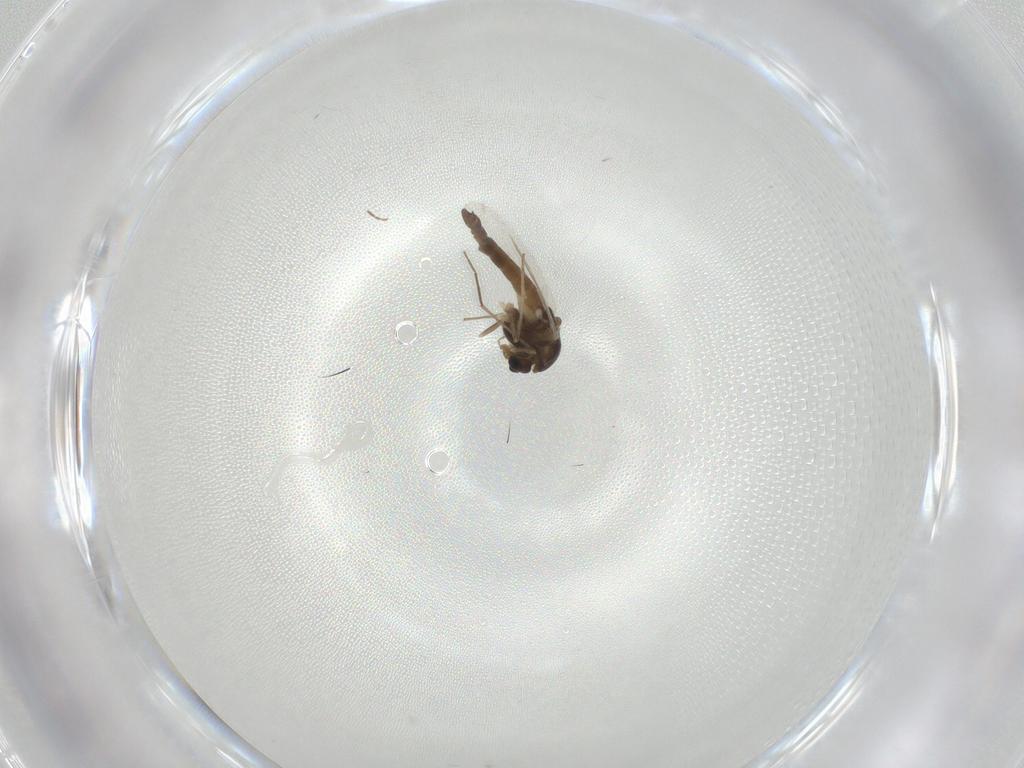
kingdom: Animalia
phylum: Arthropoda
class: Insecta
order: Diptera
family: Chironomidae
